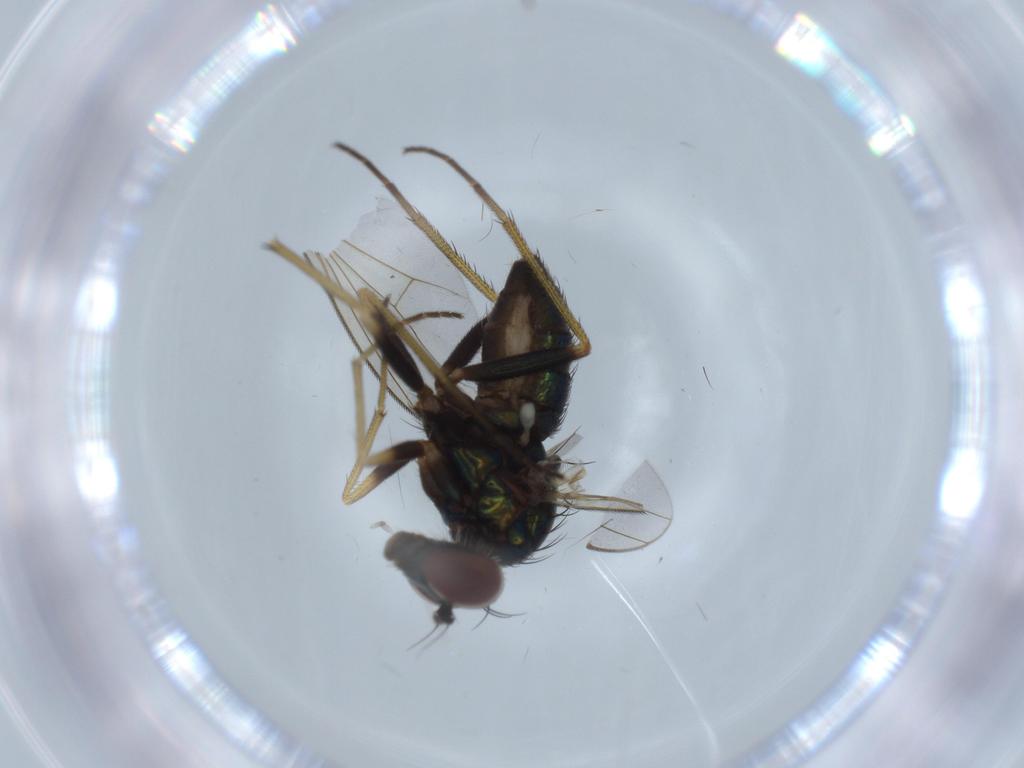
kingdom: Animalia
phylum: Arthropoda
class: Insecta
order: Diptera
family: Dolichopodidae
